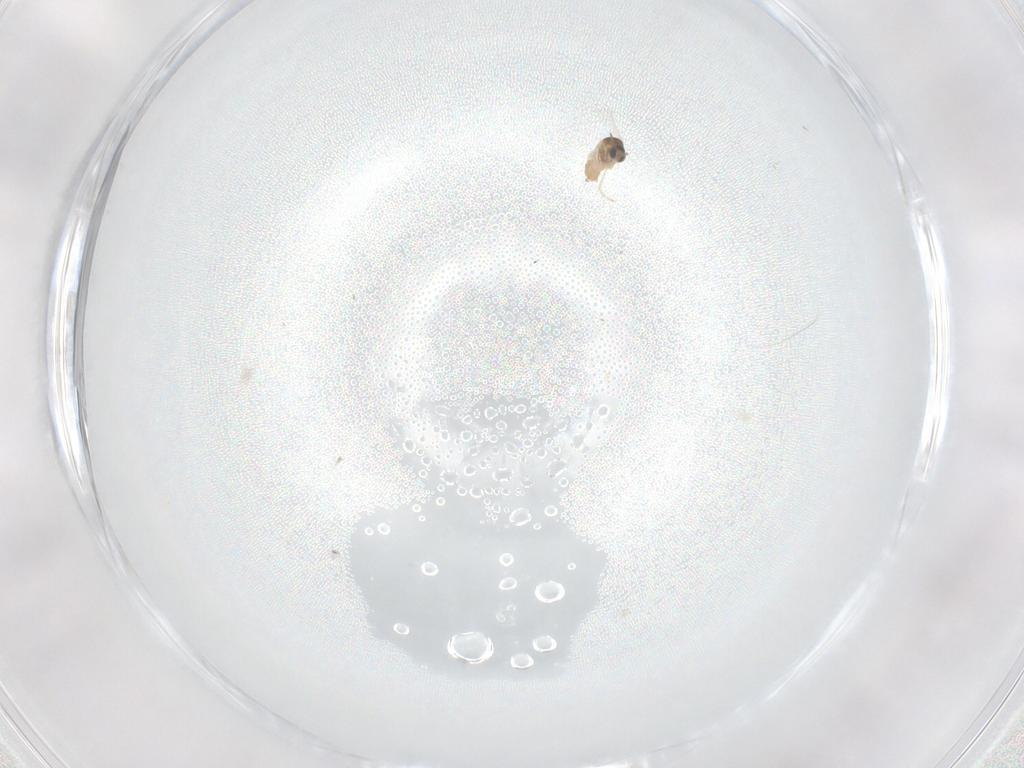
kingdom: Animalia
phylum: Arthropoda
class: Insecta
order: Diptera
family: Cecidomyiidae
